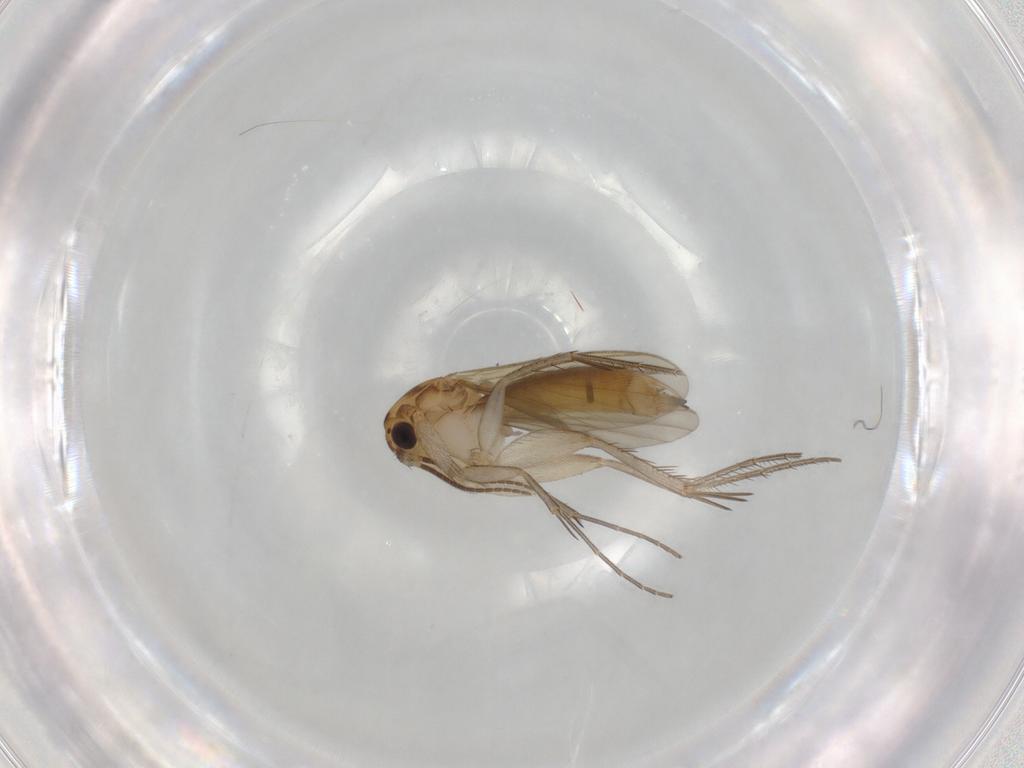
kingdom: Animalia
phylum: Arthropoda
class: Insecta
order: Diptera
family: Mycetophilidae
